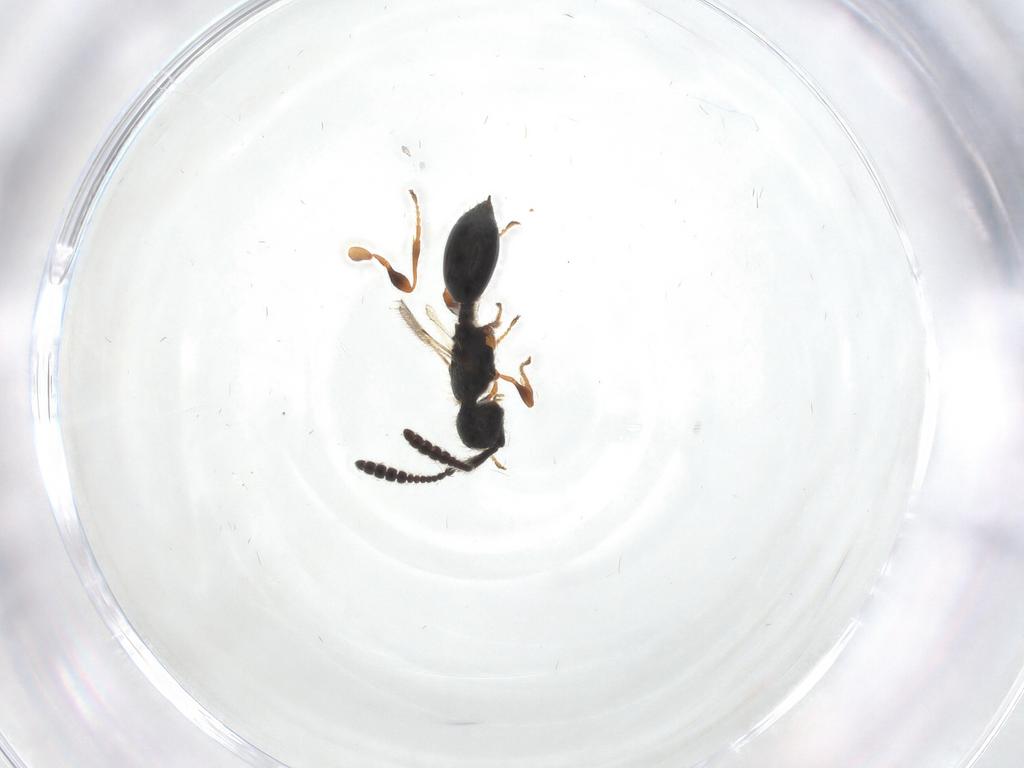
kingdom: Animalia
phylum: Arthropoda
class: Insecta
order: Hymenoptera
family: Diapriidae
